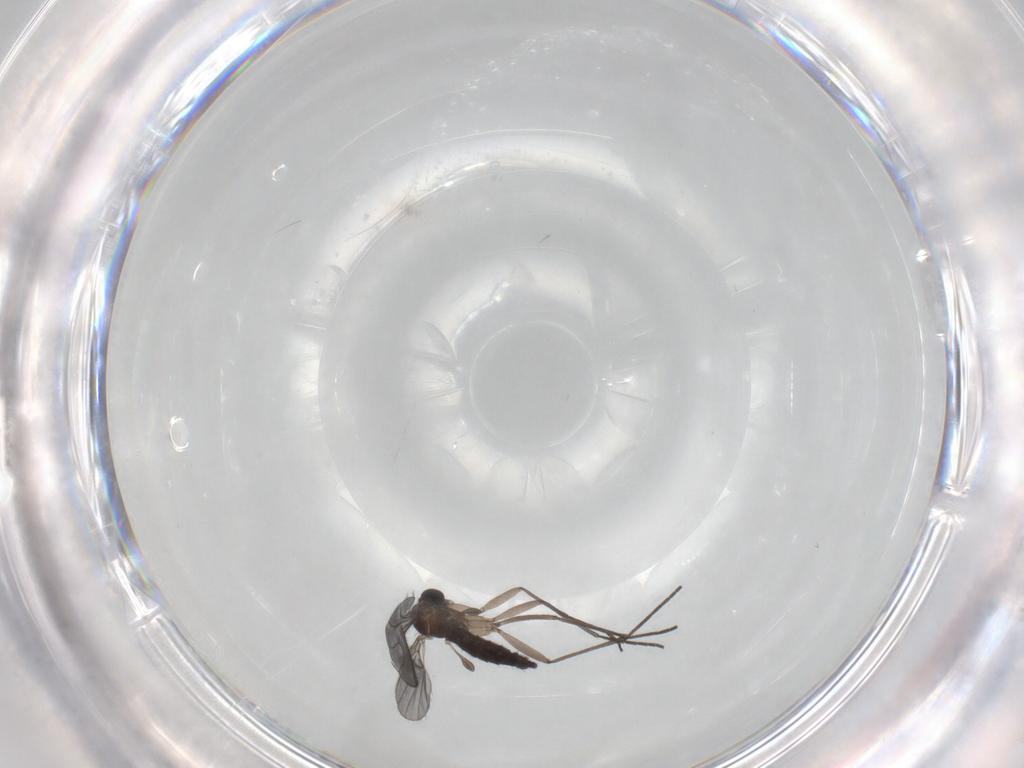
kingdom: Animalia
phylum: Arthropoda
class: Insecta
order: Diptera
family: Sciaridae
